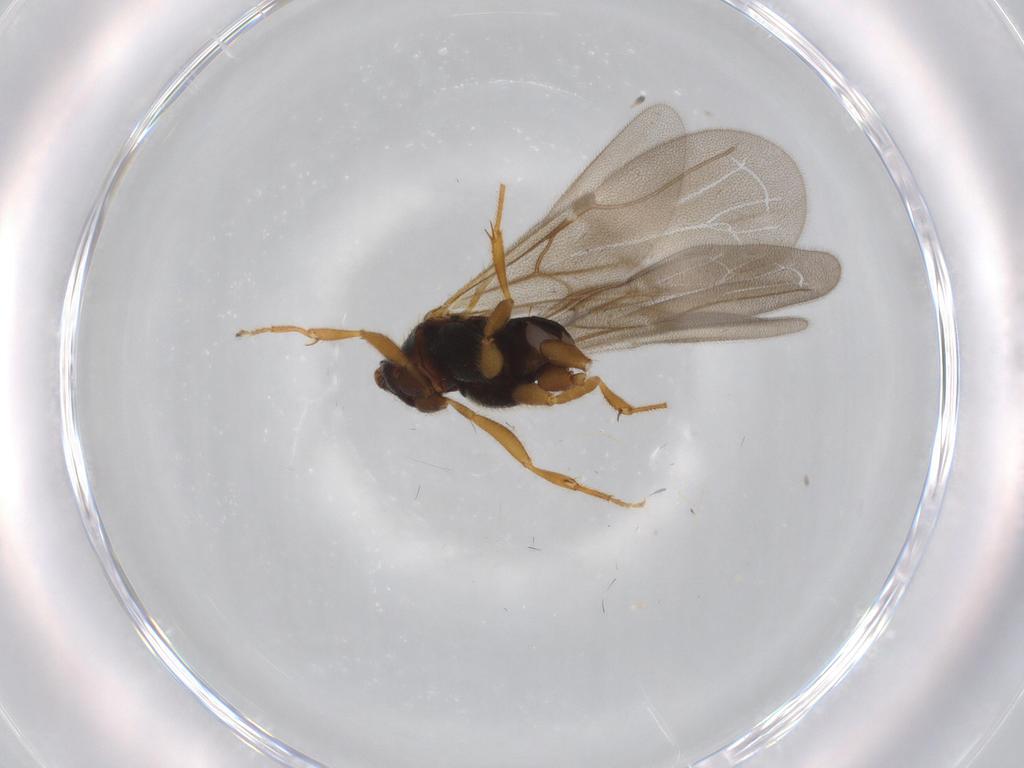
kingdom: Animalia
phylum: Arthropoda
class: Insecta
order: Hymenoptera
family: Bethylidae
